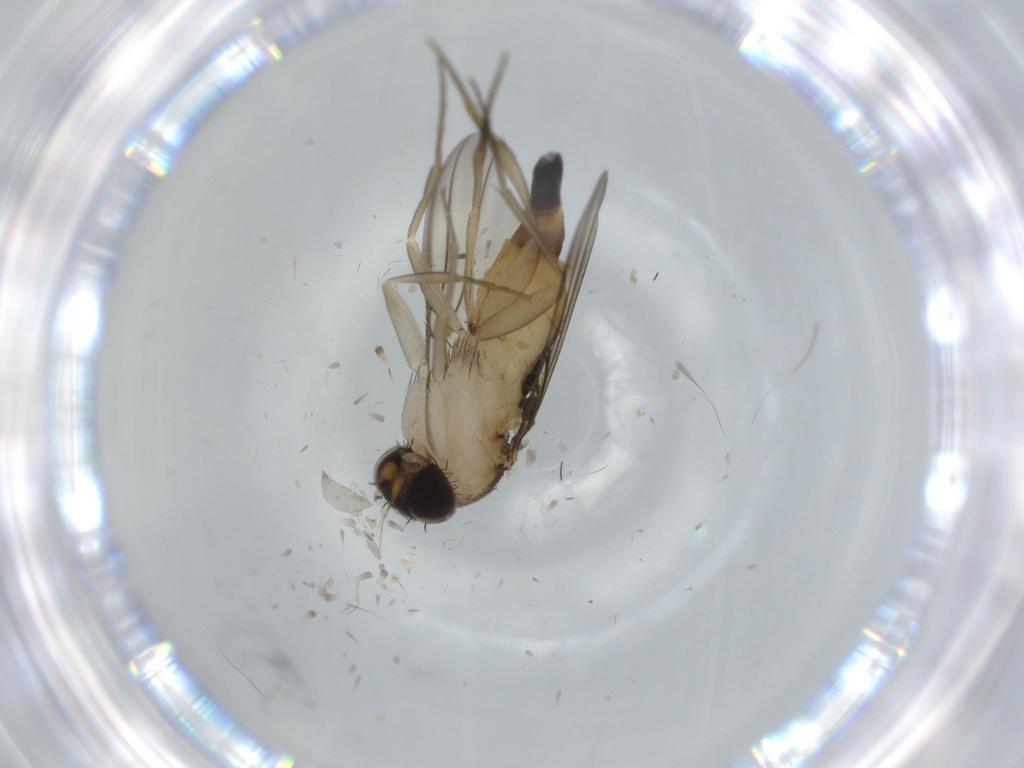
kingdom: Animalia
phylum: Arthropoda
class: Insecta
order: Diptera
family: Phoridae
